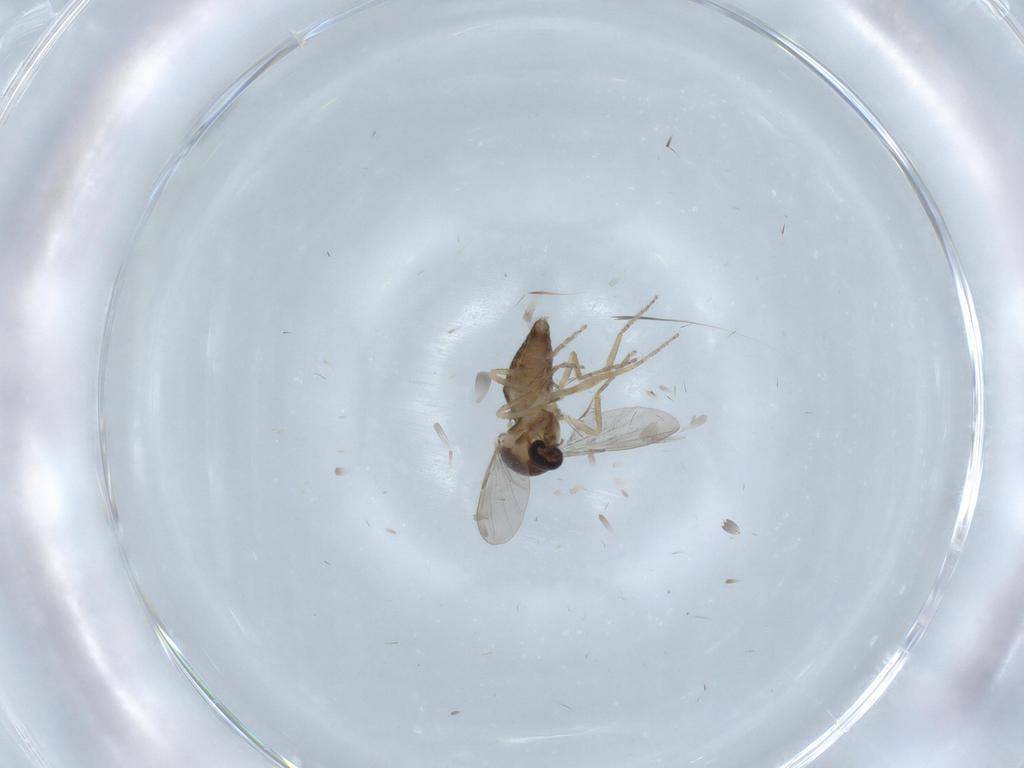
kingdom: Animalia
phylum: Arthropoda
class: Insecta
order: Diptera
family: Ceratopogonidae
